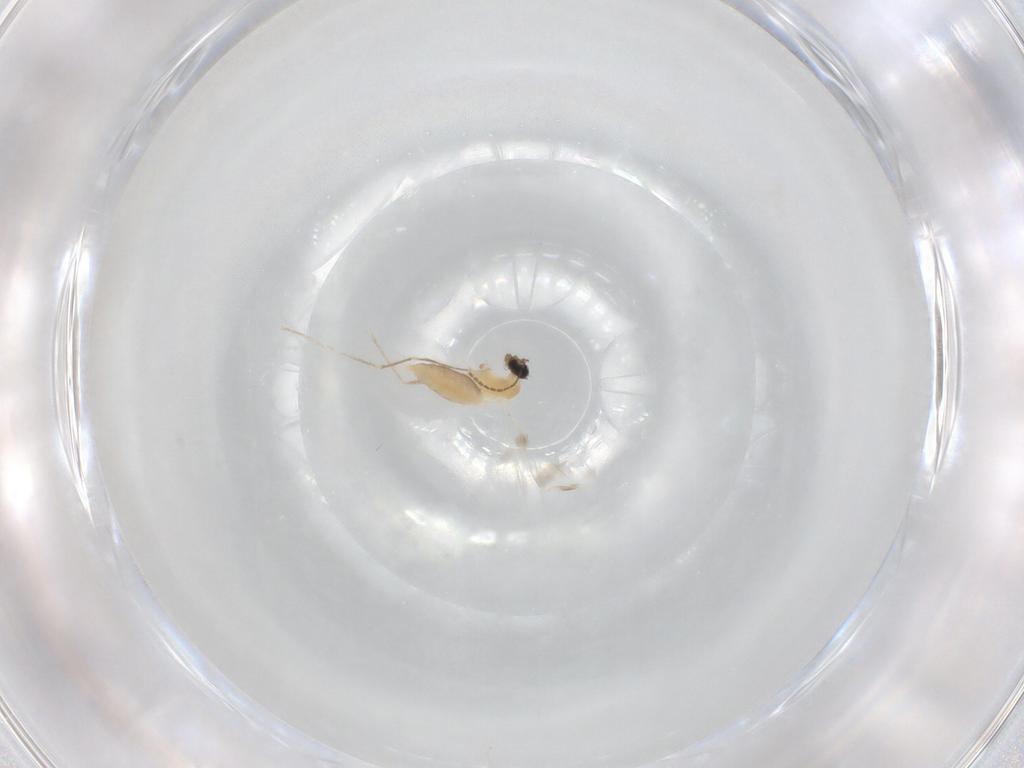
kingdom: Animalia
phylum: Arthropoda
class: Insecta
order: Diptera
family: Cecidomyiidae
